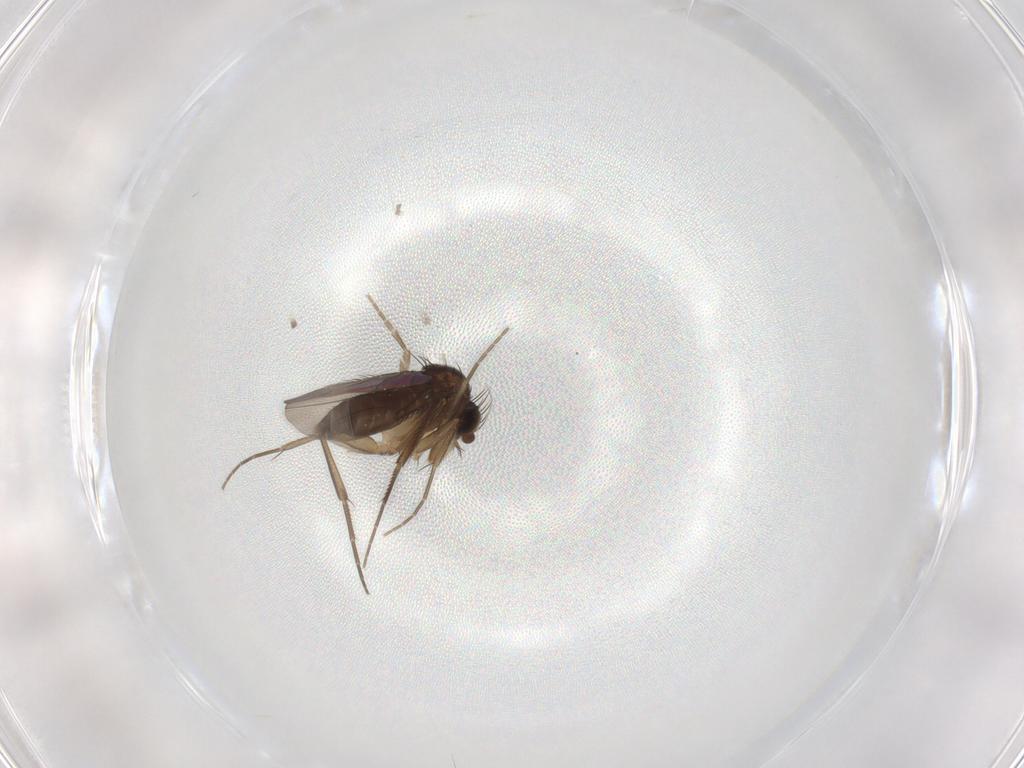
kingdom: Animalia
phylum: Arthropoda
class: Insecta
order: Diptera
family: Phoridae
